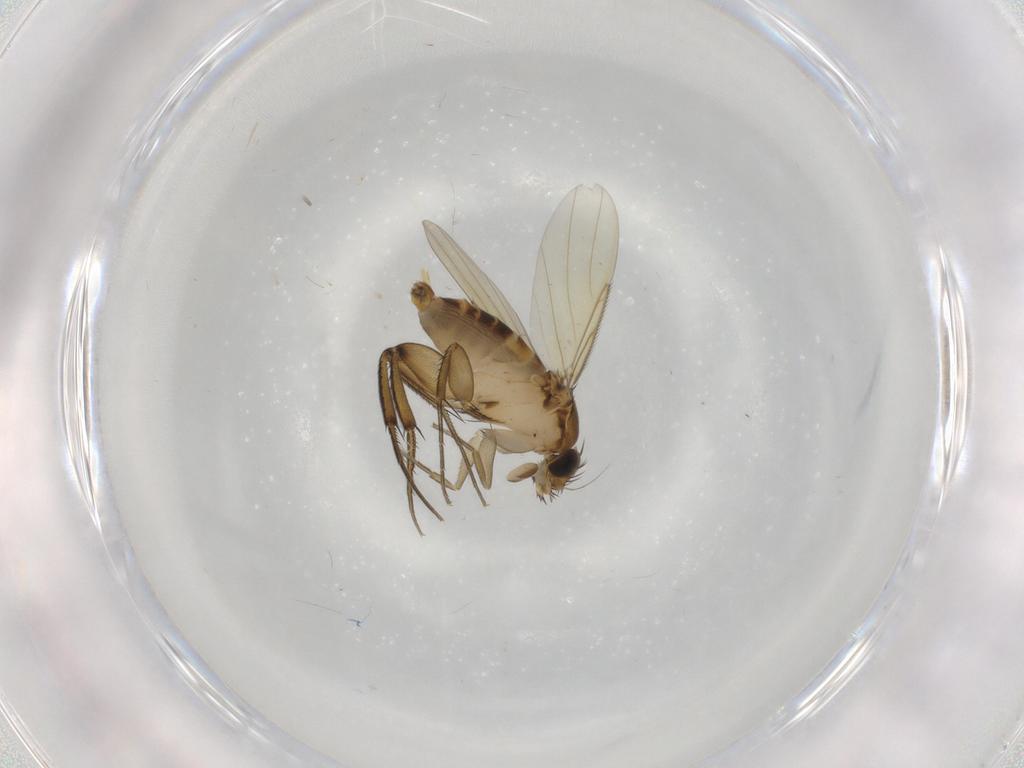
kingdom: Animalia
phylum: Arthropoda
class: Insecta
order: Diptera
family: Phoridae
